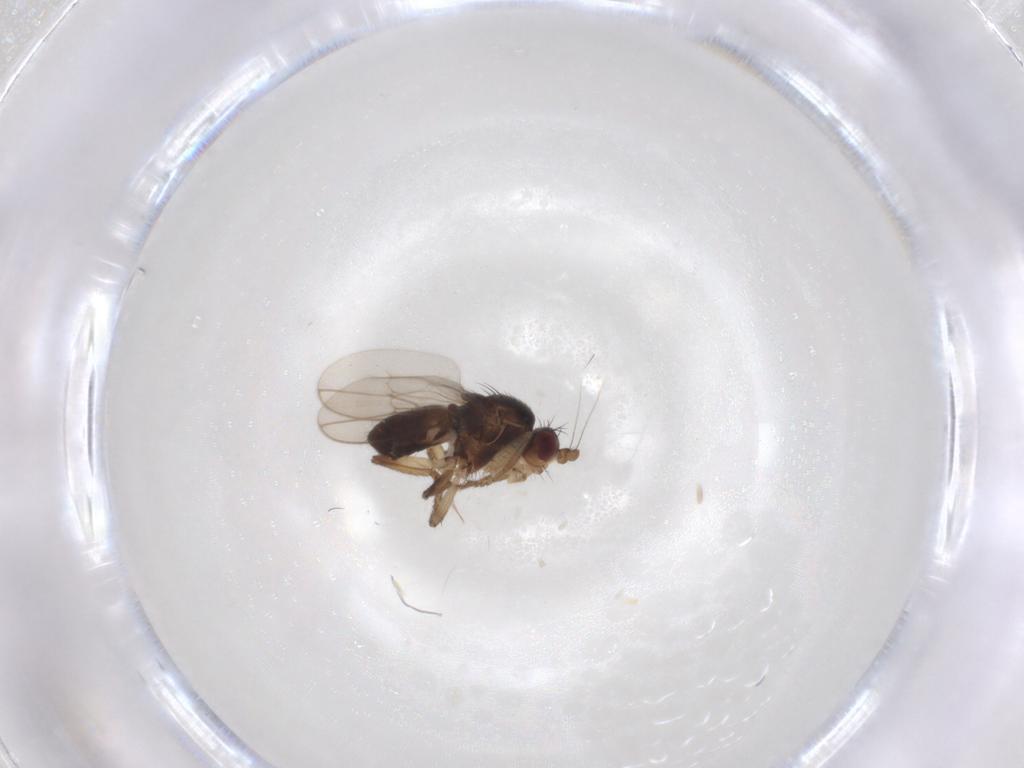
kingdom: Animalia
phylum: Arthropoda
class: Insecta
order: Diptera
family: Sphaeroceridae
